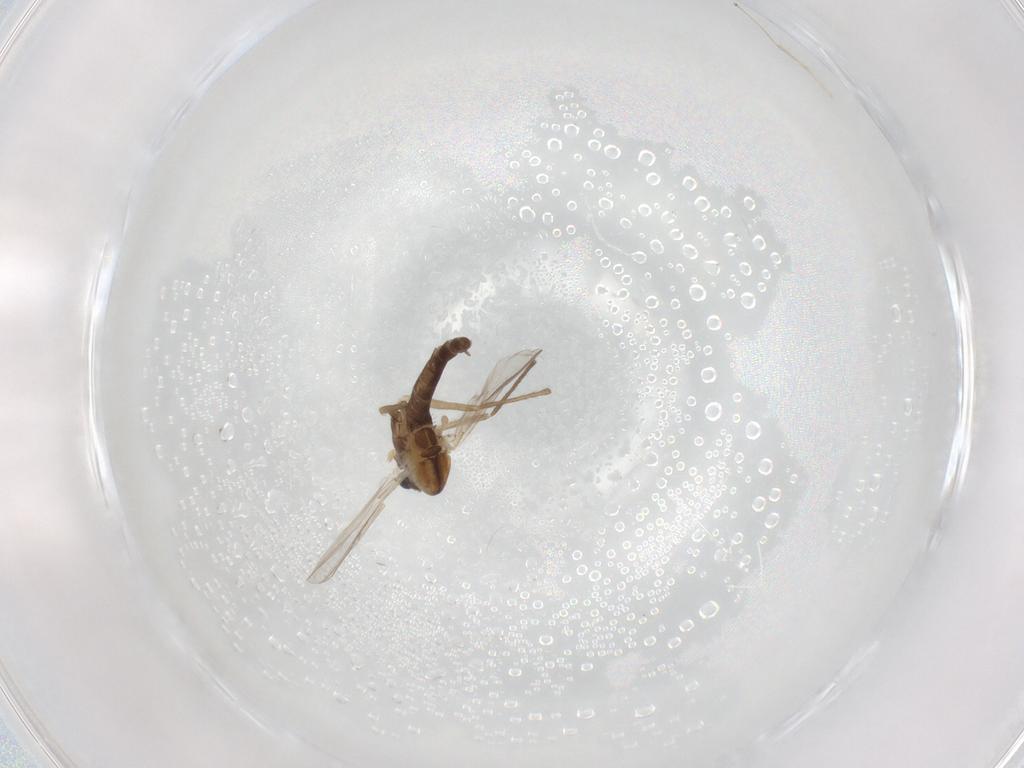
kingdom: Animalia
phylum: Arthropoda
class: Insecta
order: Diptera
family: Chironomidae
